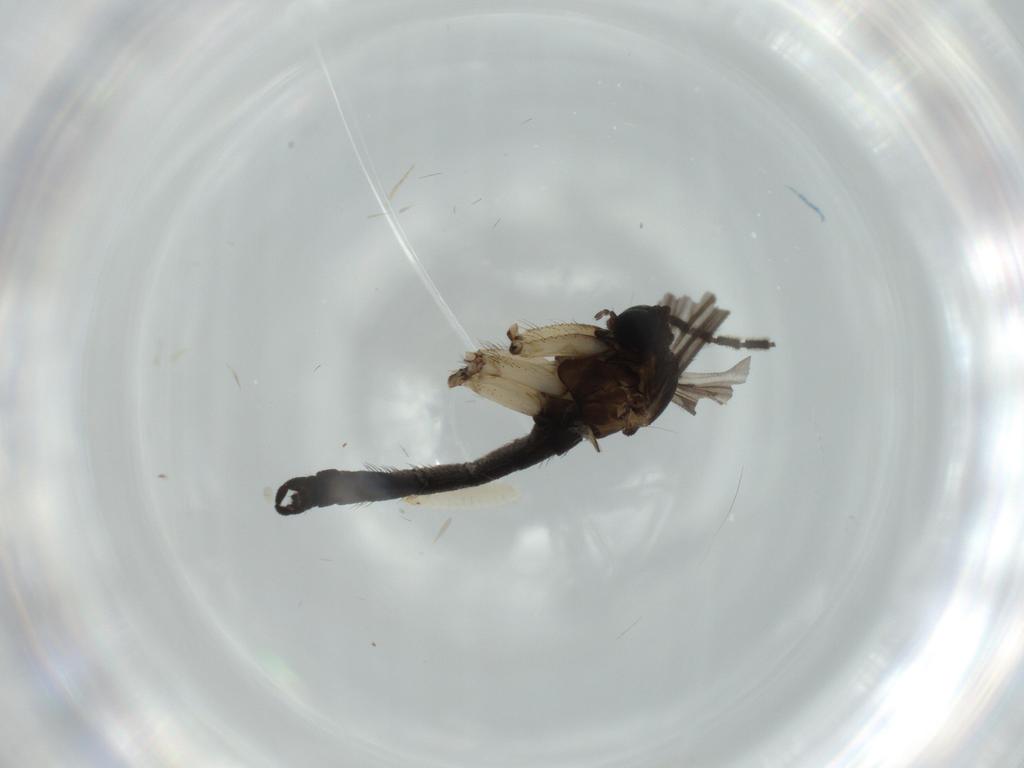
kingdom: Animalia
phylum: Arthropoda
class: Insecta
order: Diptera
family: Sciaridae
